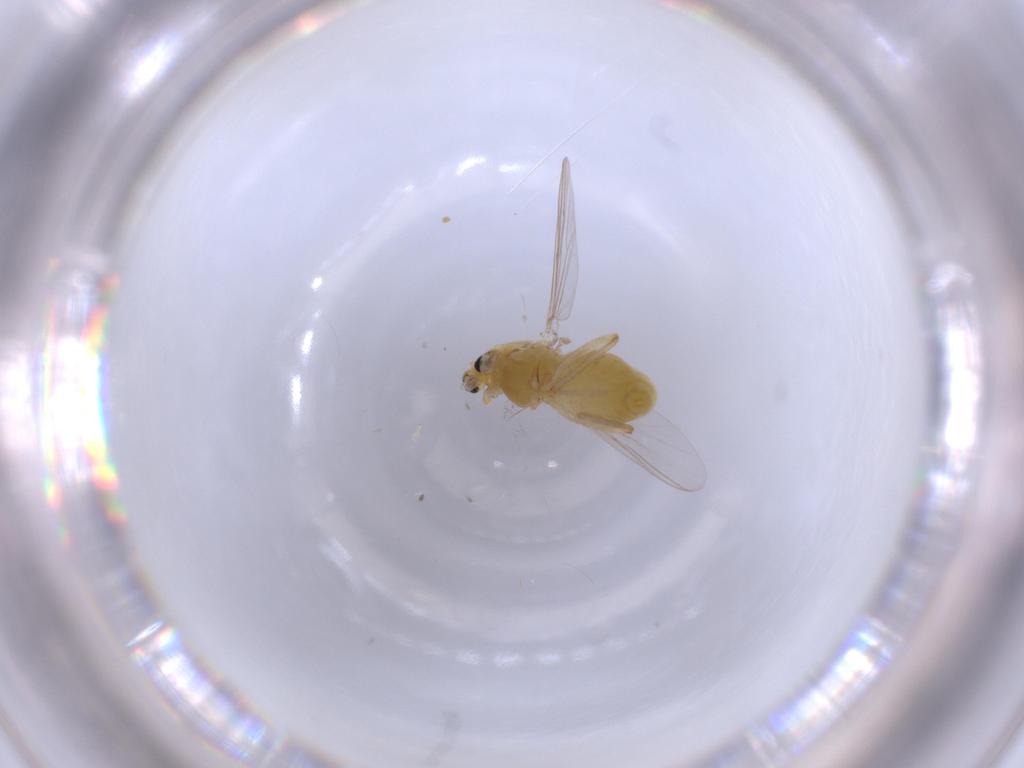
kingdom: Animalia
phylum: Arthropoda
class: Insecta
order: Diptera
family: Chironomidae
